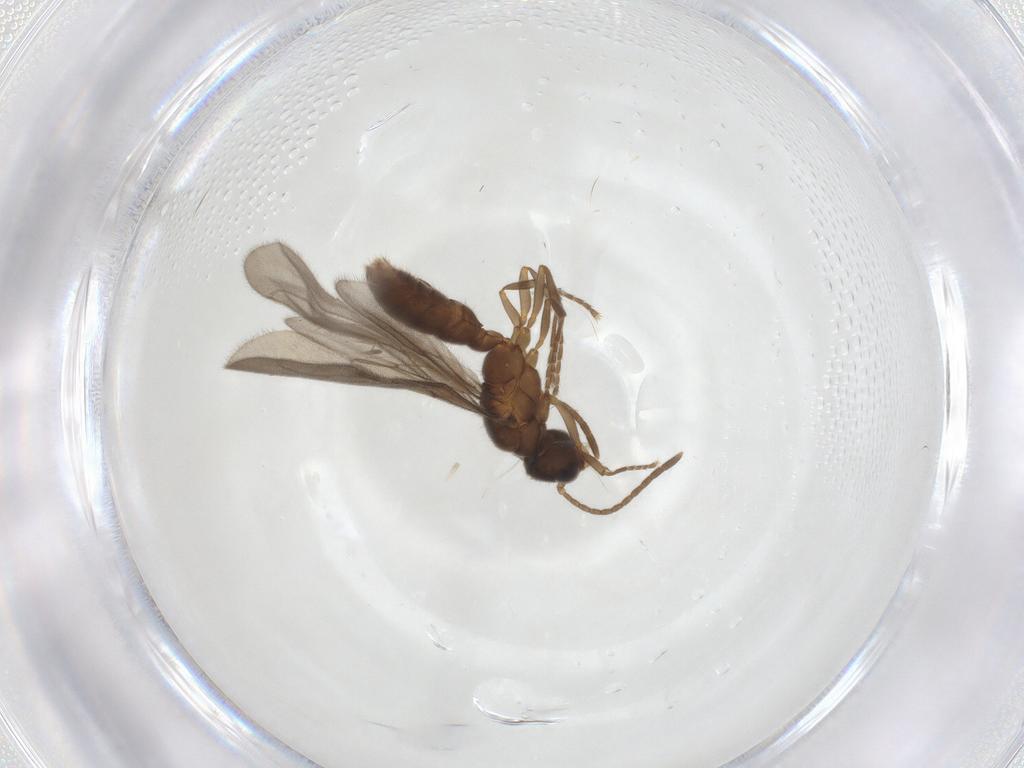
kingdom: Animalia
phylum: Arthropoda
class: Insecta
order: Hymenoptera
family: Formicidae
